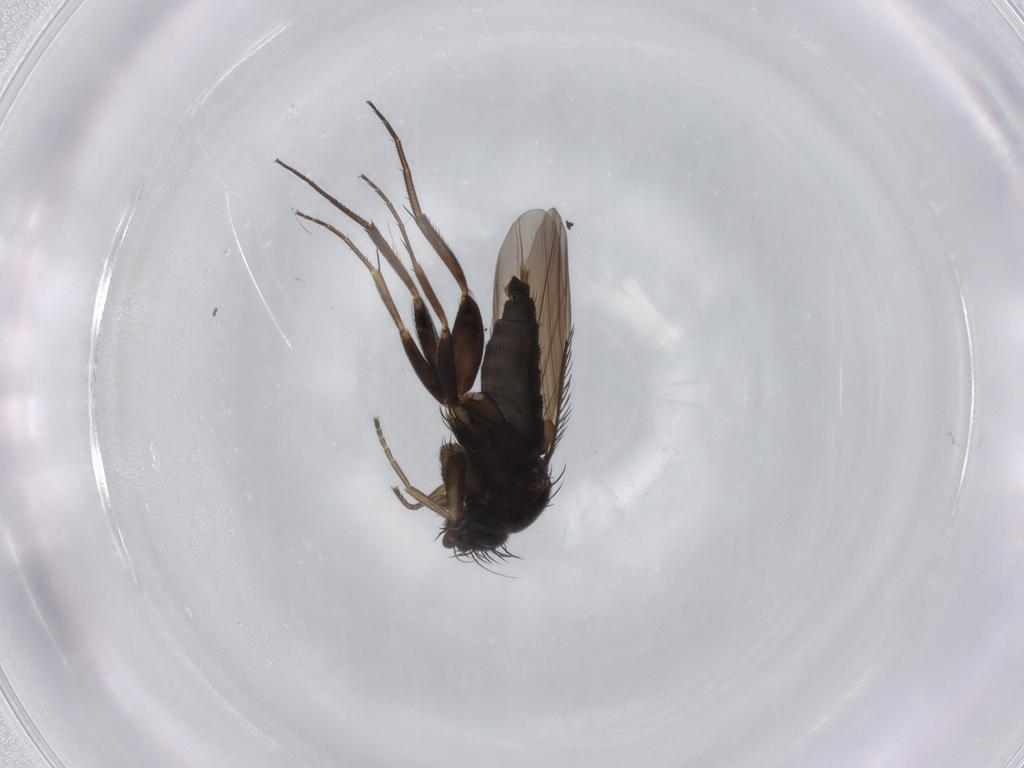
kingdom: Animalia
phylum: Arthropoda
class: Insecta
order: Diptera
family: Phoridae
